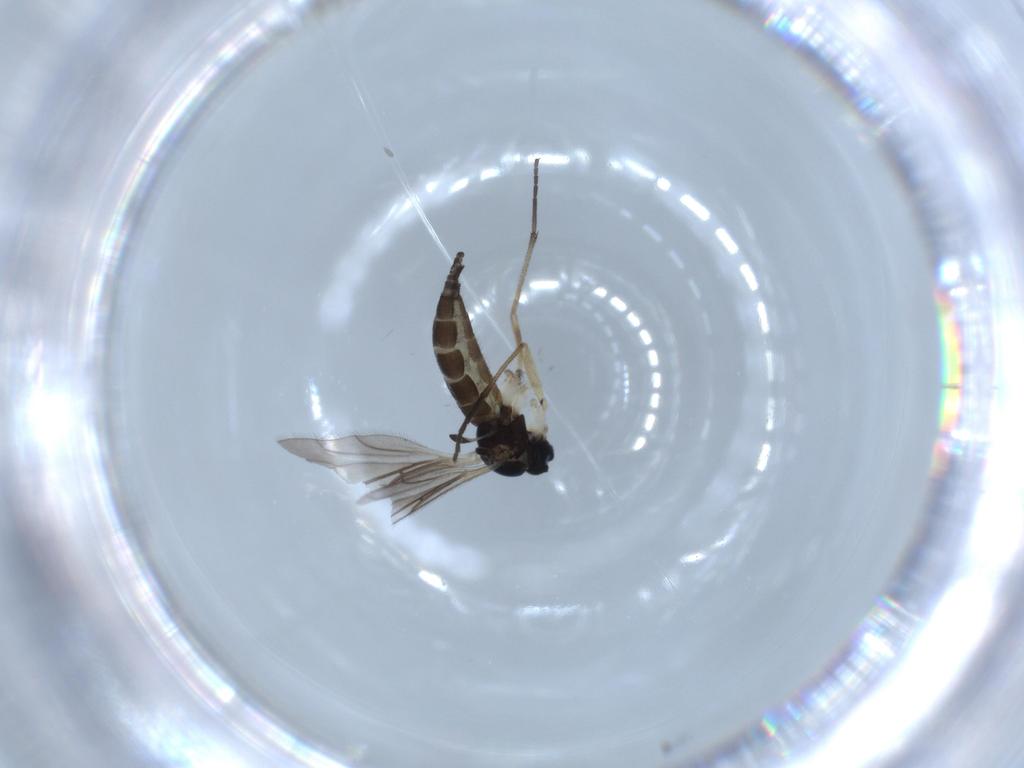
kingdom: Animalia
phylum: Arthropoda
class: Insecta
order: Diptera
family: Sciaridae
